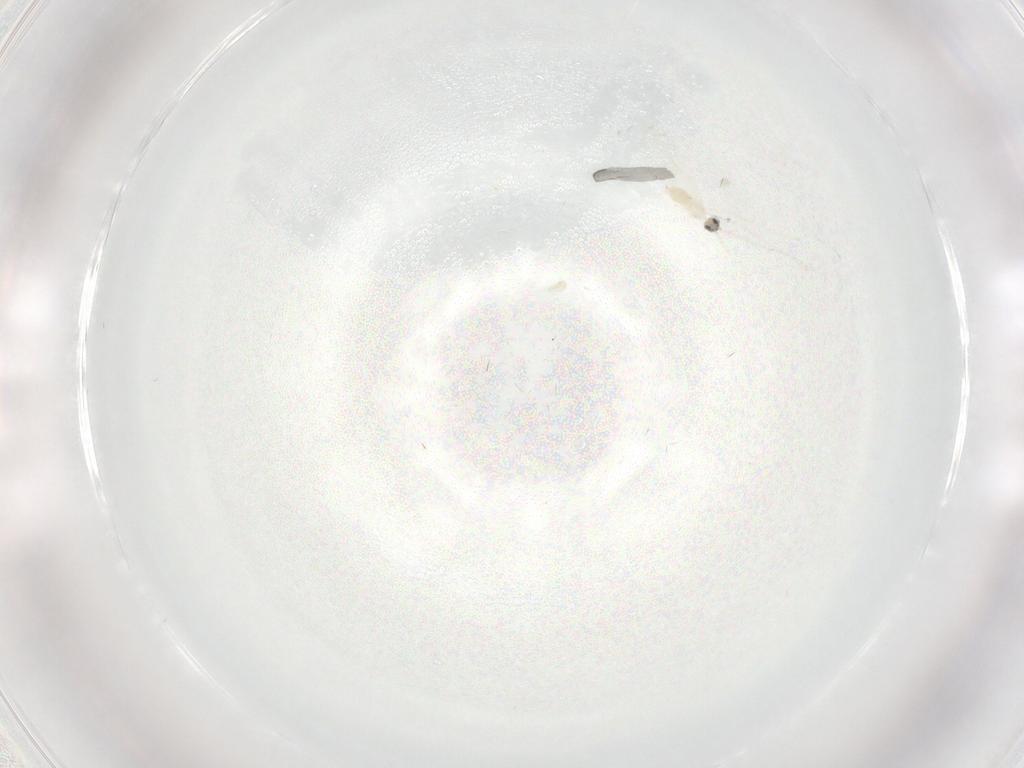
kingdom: Animalia
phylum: Arthropoda
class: Insecta
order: Diptera
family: Cecidomyiidae
